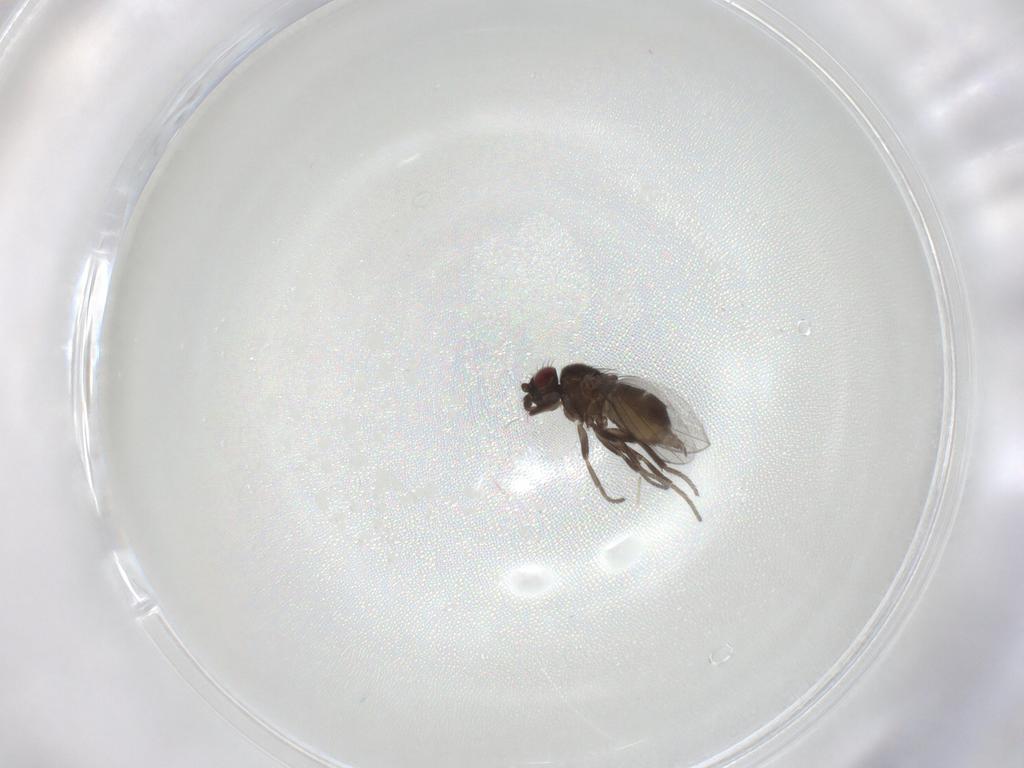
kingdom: Animalia
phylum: Arthropoda
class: Insecta
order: Diptera
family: Milichiidae
